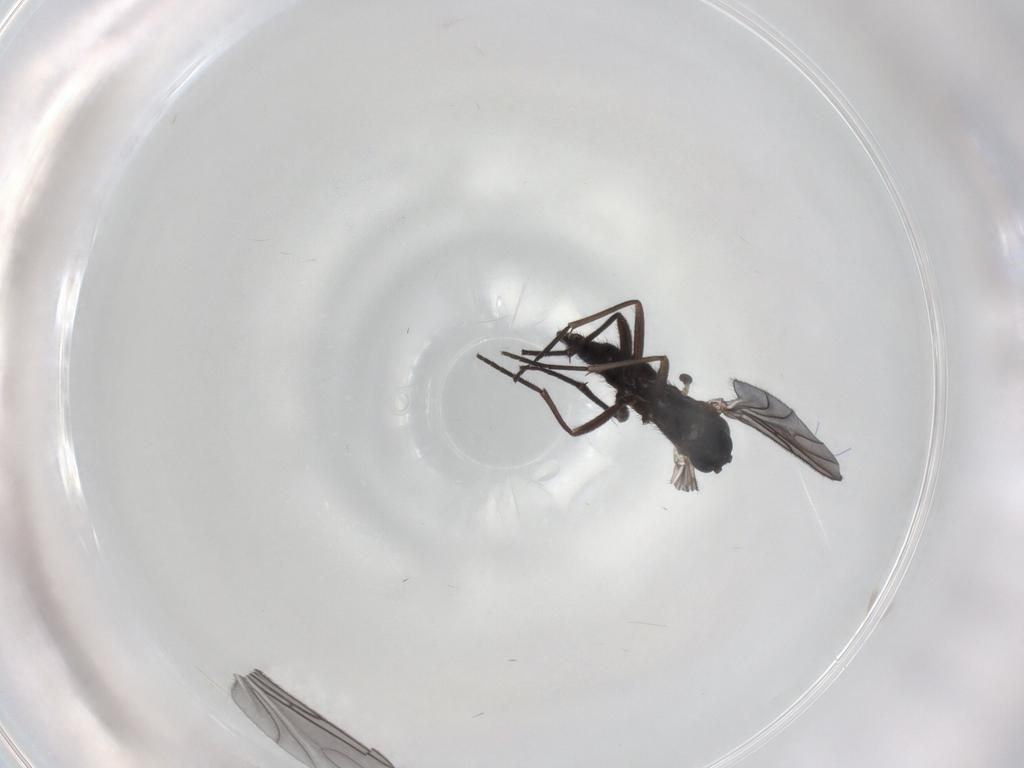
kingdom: Animalia
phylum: Arthropoda
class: Insecta
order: Diptera
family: Sciaridae
